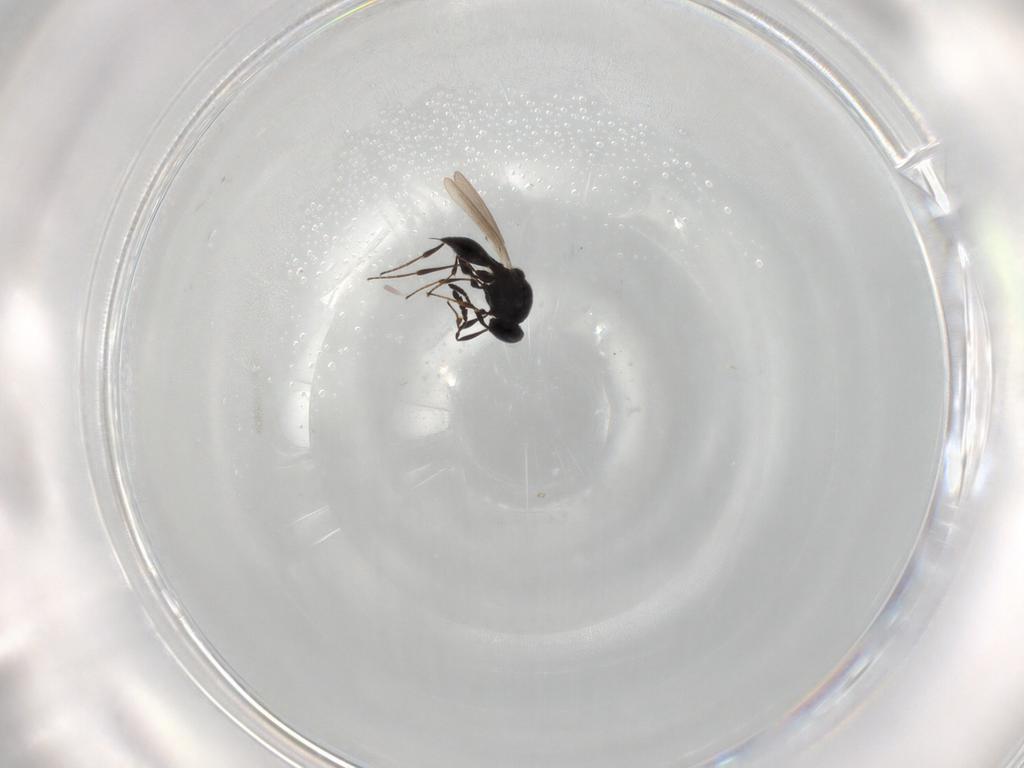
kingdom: Animalia
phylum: Arthropoda
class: Insecta
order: Hymenoptera
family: Platygastridae
